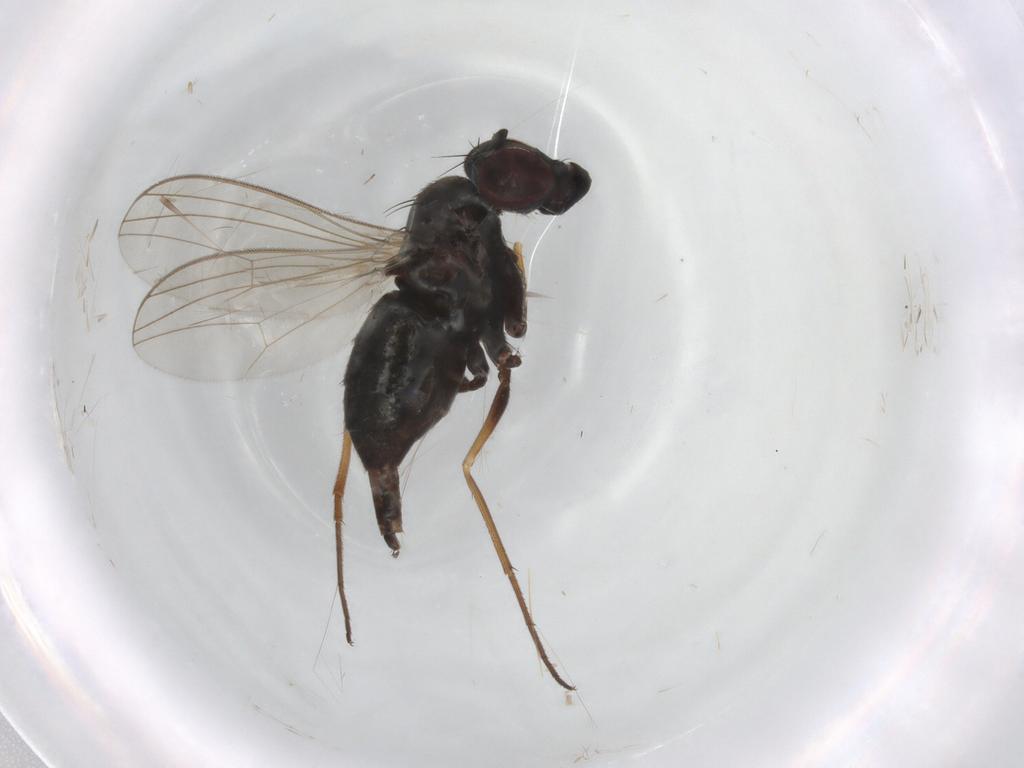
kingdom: Animalia
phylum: Arthropoda
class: Insecta
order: Diptera
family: Dolichopodidae
